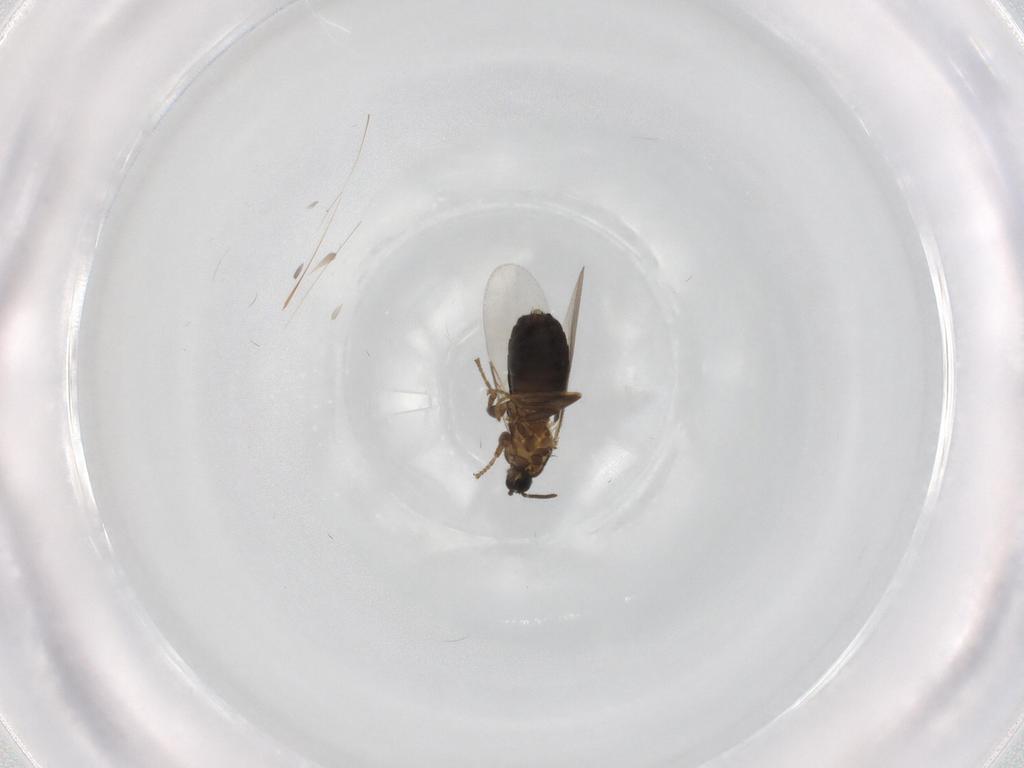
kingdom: Animalia
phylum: Arthropoda
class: Insecta
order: Diptera
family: Scatopsidae
